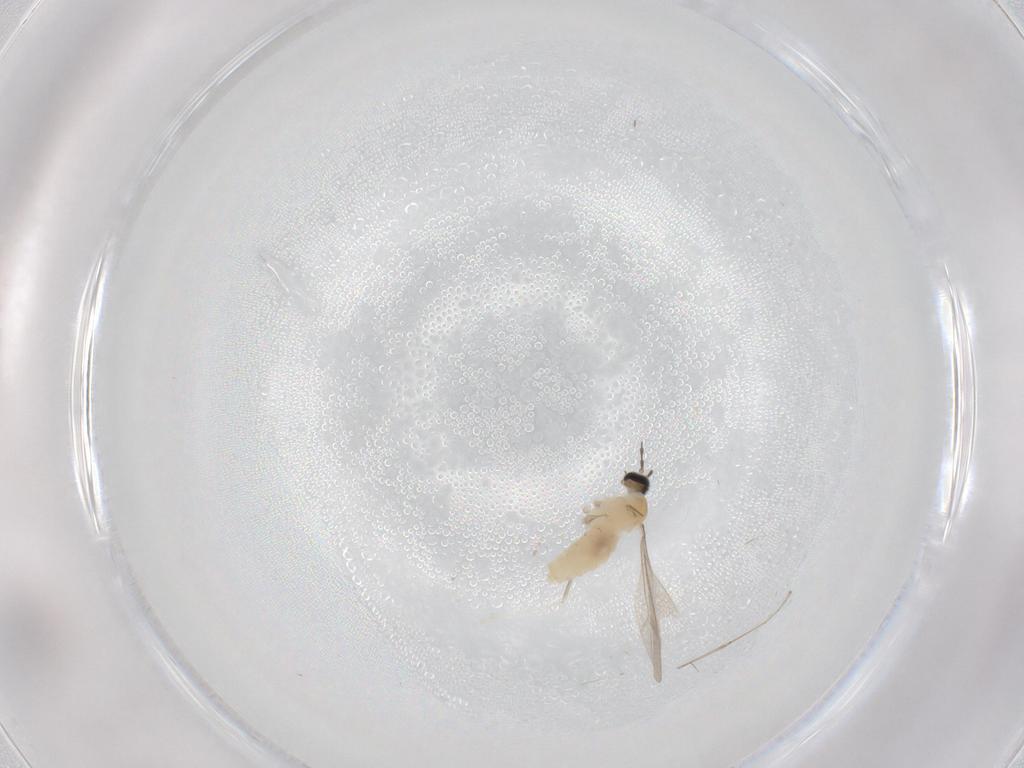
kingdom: Animalia
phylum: Arthropoda
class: Insecta
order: Diptera
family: Cecidomyiidae
